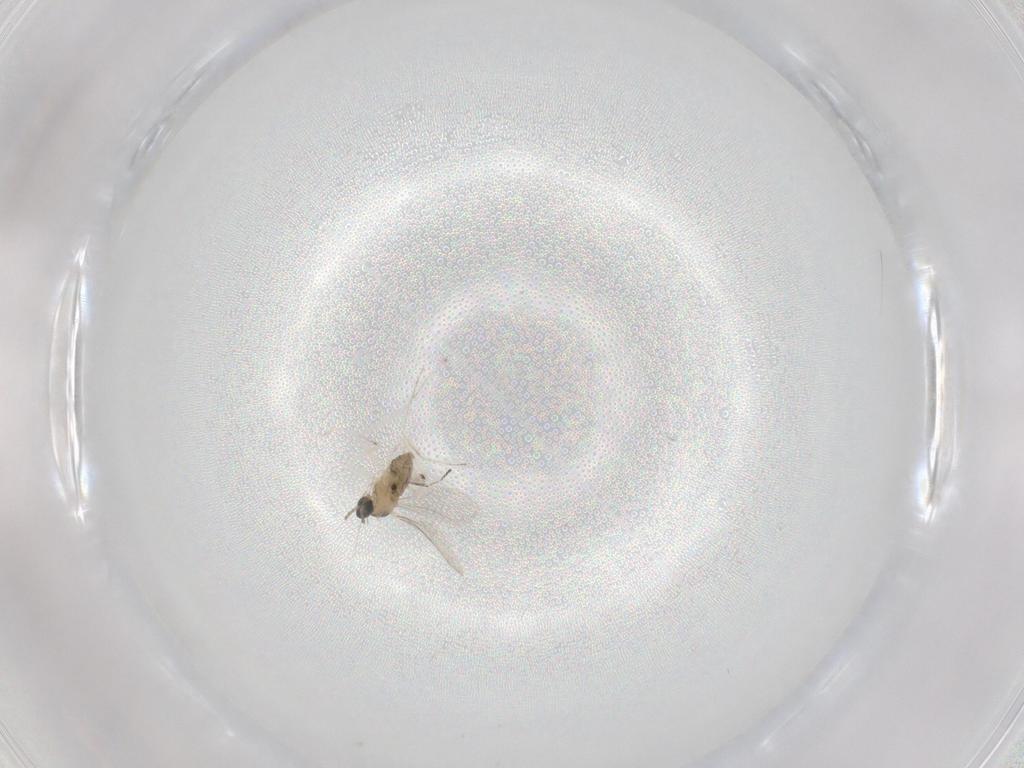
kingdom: Animalia
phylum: Arthropoda
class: Insecta
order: Diptera
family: Cecidomyiidae
